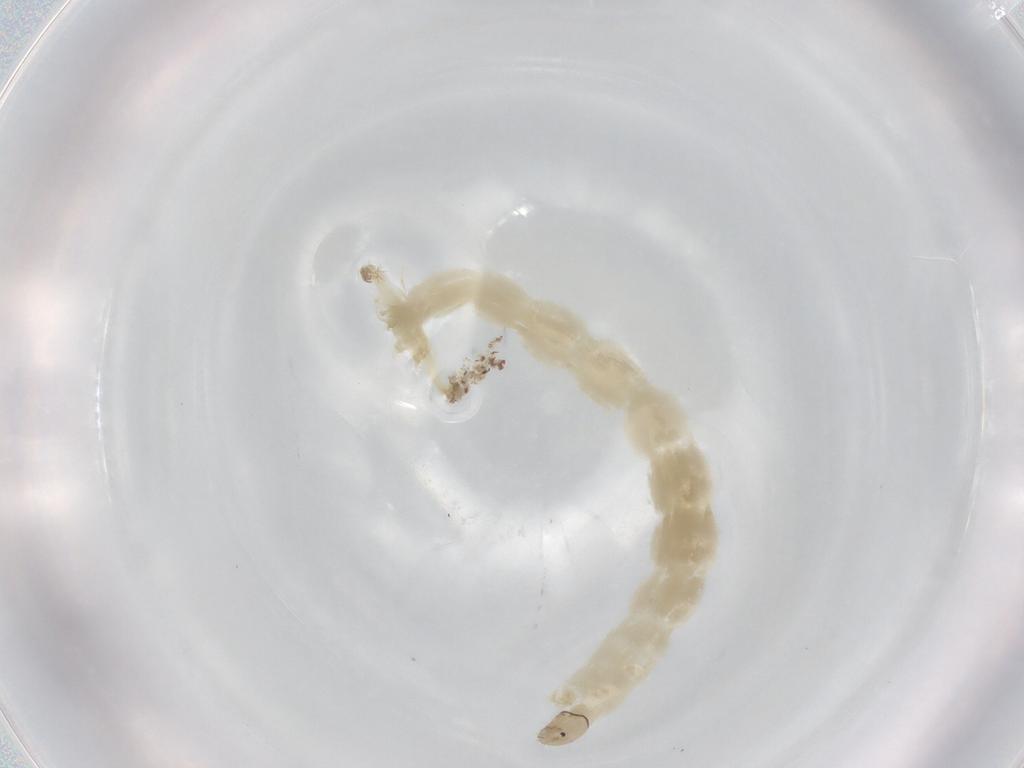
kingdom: Animalia
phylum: Arthropoda
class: Insecta
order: Diptera
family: Chironomidae
